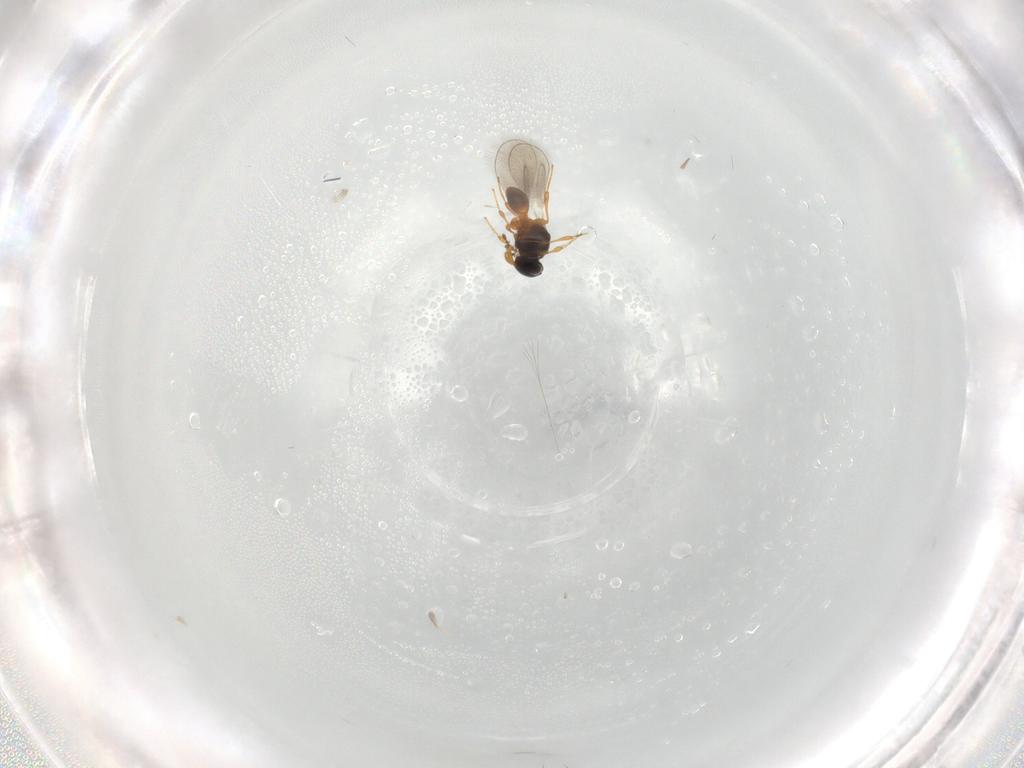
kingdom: Animalia
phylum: Arthropoda
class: Insecta
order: Hymenoptera
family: Platygastridae
